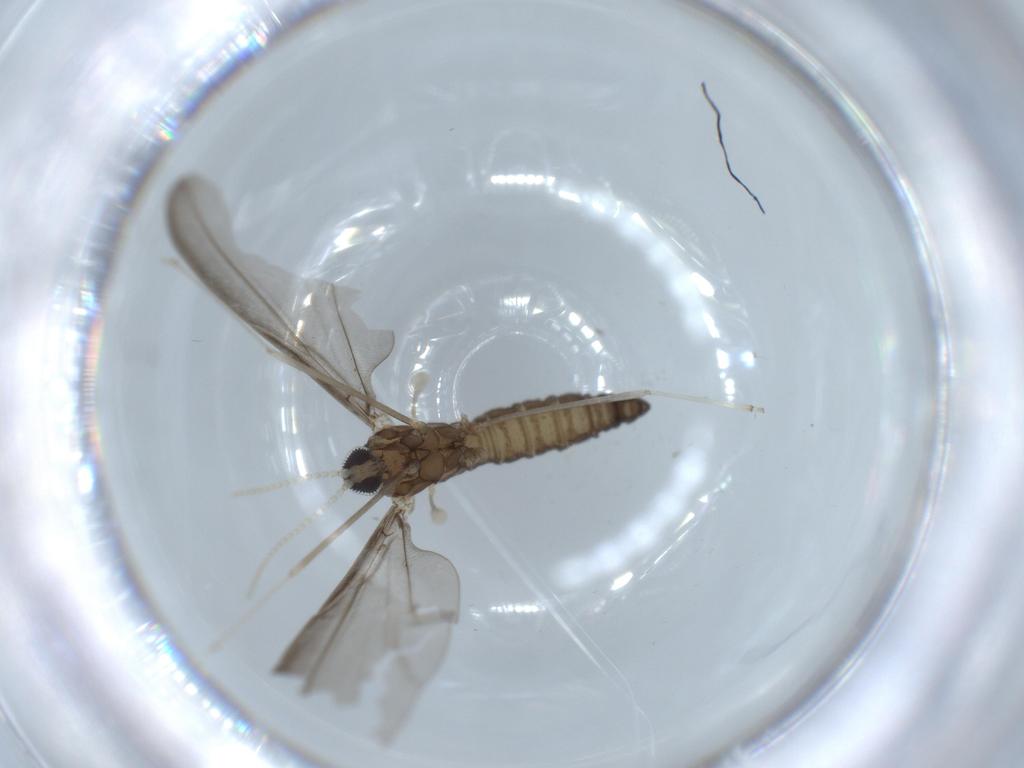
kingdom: Animalia
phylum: Arthropoda
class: Insecta
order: Diptera
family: Cecidomyiidae
